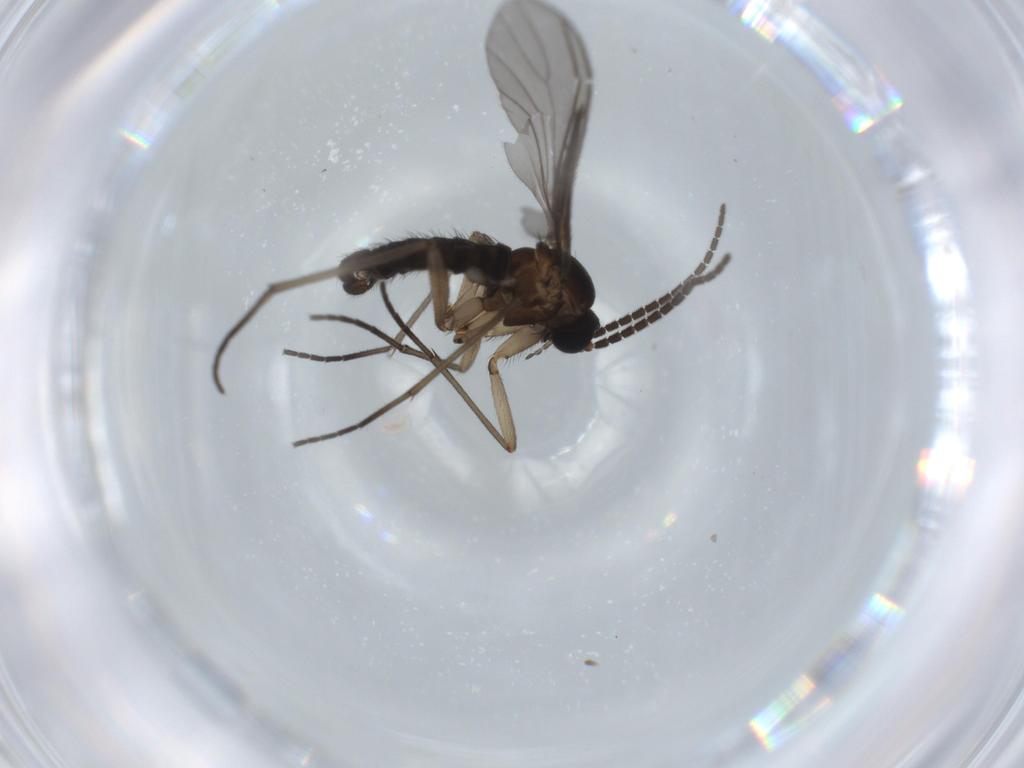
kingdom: Animalia
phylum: Arthropoda
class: Insecta
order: Diptera
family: Sciaridae
